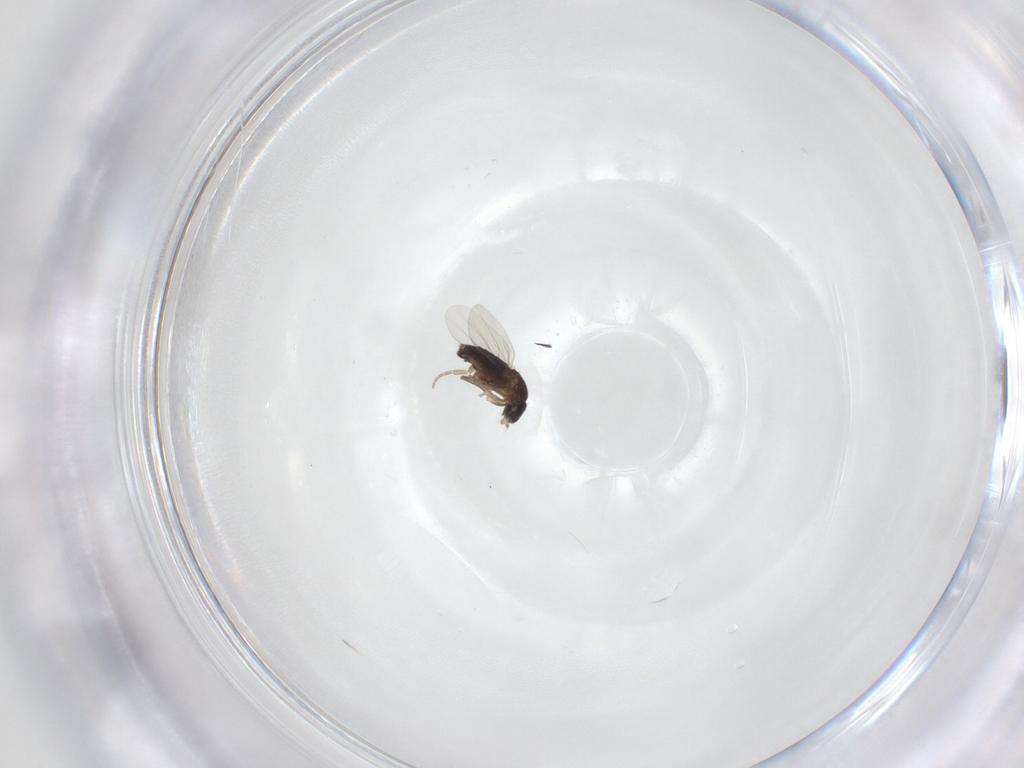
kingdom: Animalia
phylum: Arthropoda
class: Insecta
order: Diptera
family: Phoridae
